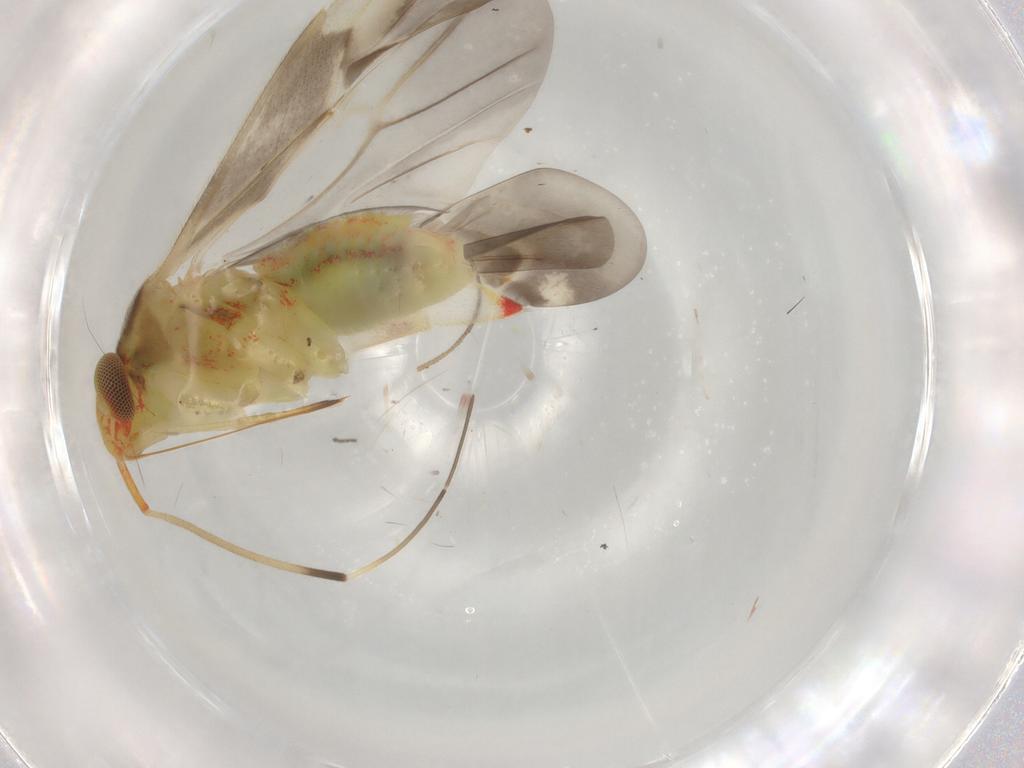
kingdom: Animalia
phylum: Arthropoda
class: Insecta
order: Hemiptera
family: Miridae
